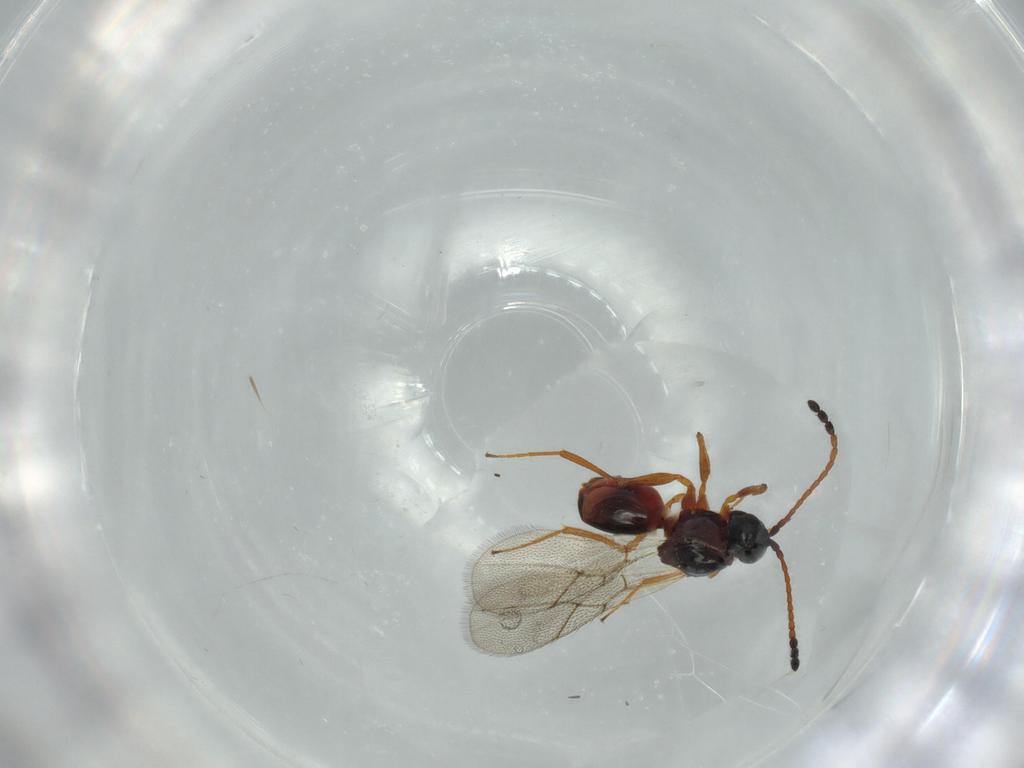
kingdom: Animalia
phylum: Arthropoda
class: Insecta
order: Hymenoptera
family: Figitidae
